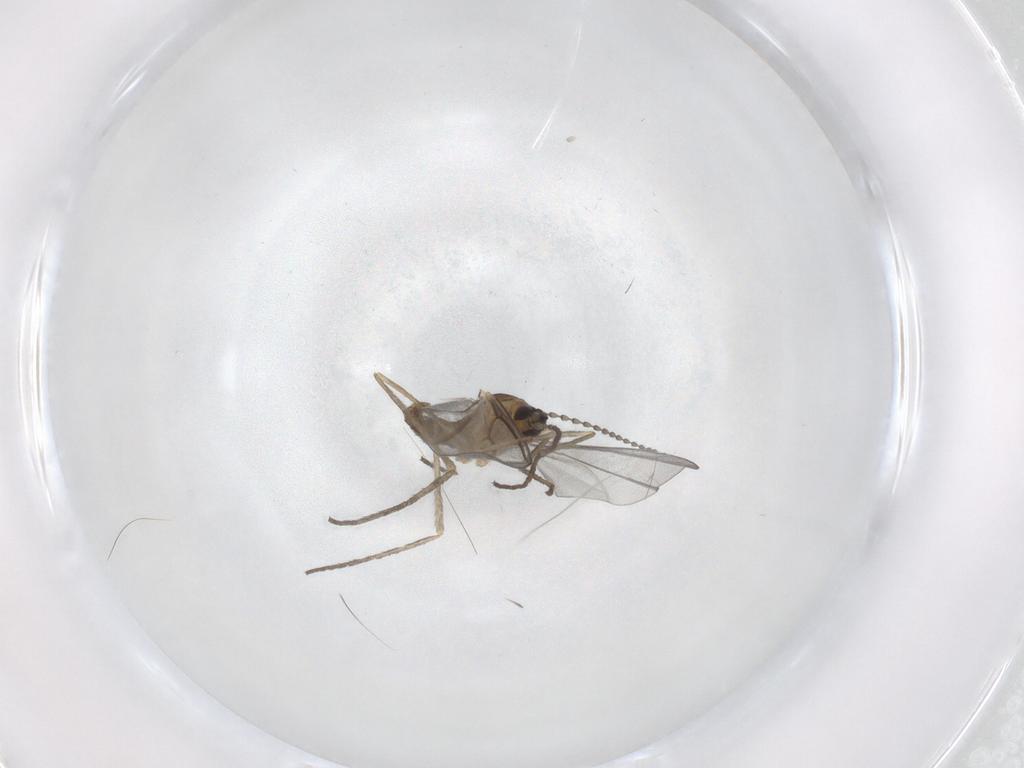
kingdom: Animalia
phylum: Arthropoda
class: Insecta
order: Diptera
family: Cecidomyiidae
